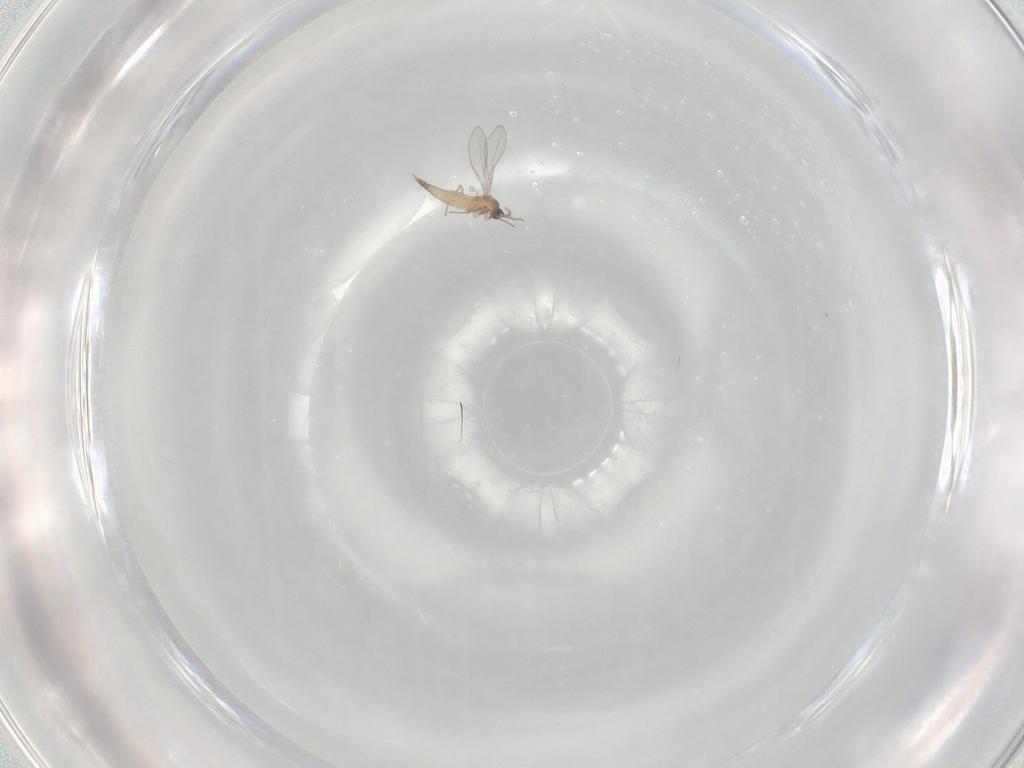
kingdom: Animalia
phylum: Arthropoda
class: Insecta
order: Diptera
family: Cecidomyiidae
